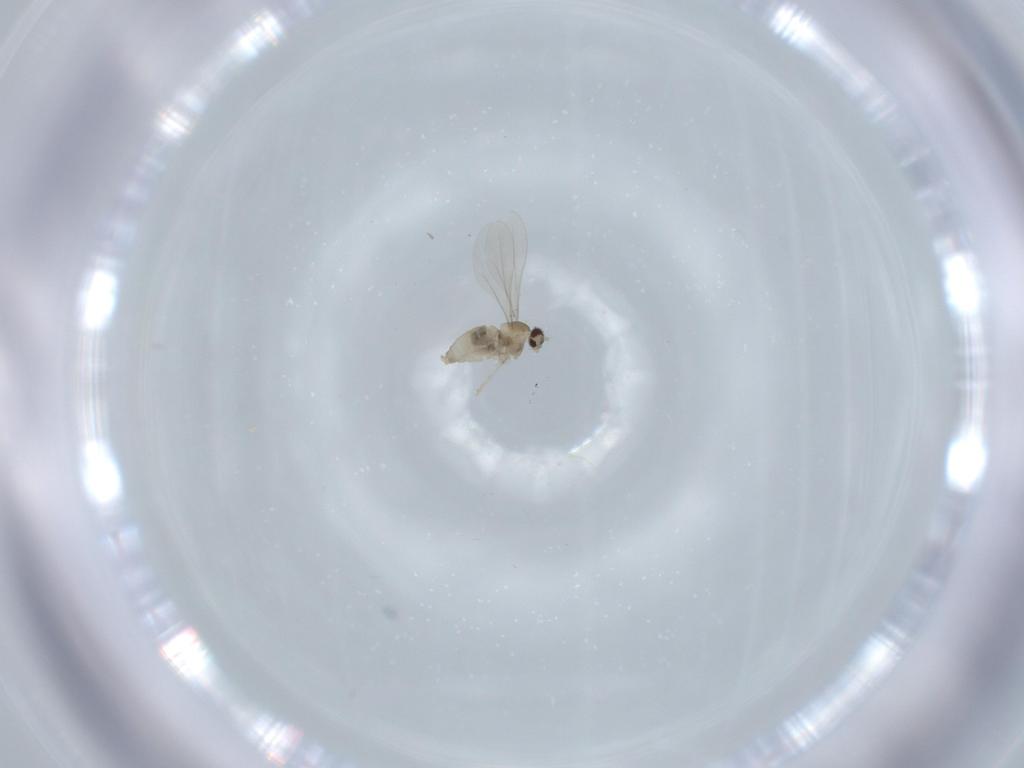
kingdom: Animalia
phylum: Arthropoda
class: Insecta
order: Diptera
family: Cecidomyiidae
